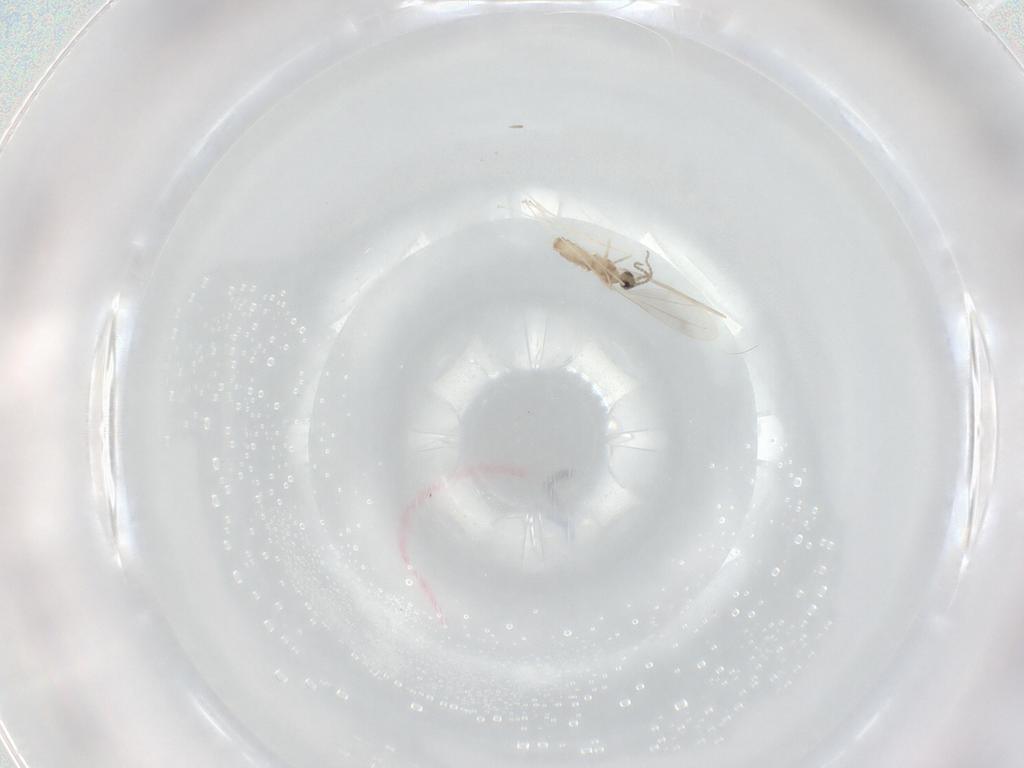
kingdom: Animalia
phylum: Arthropoda
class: Insecta
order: Diptera
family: Cecidomyiidae
